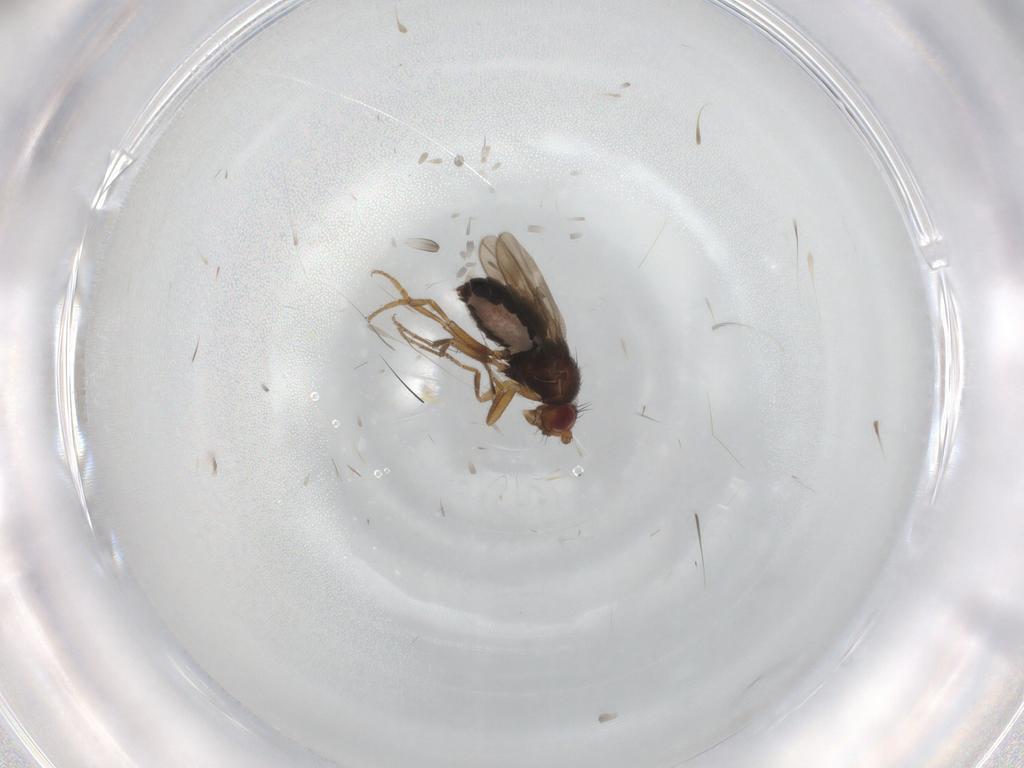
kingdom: Animalia
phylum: Arthropoda
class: Insecta
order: Diptera
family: Sphaeroceridae
